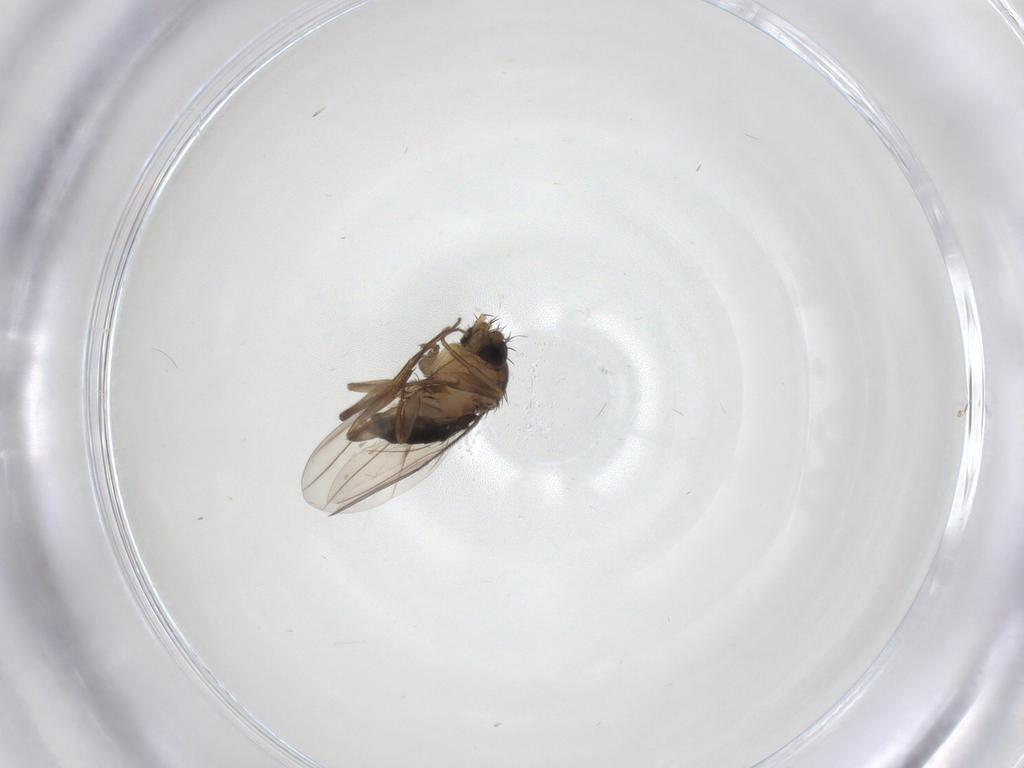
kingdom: Animalia
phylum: Arthropoda
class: Insecta
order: Diptera
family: Phoridae
